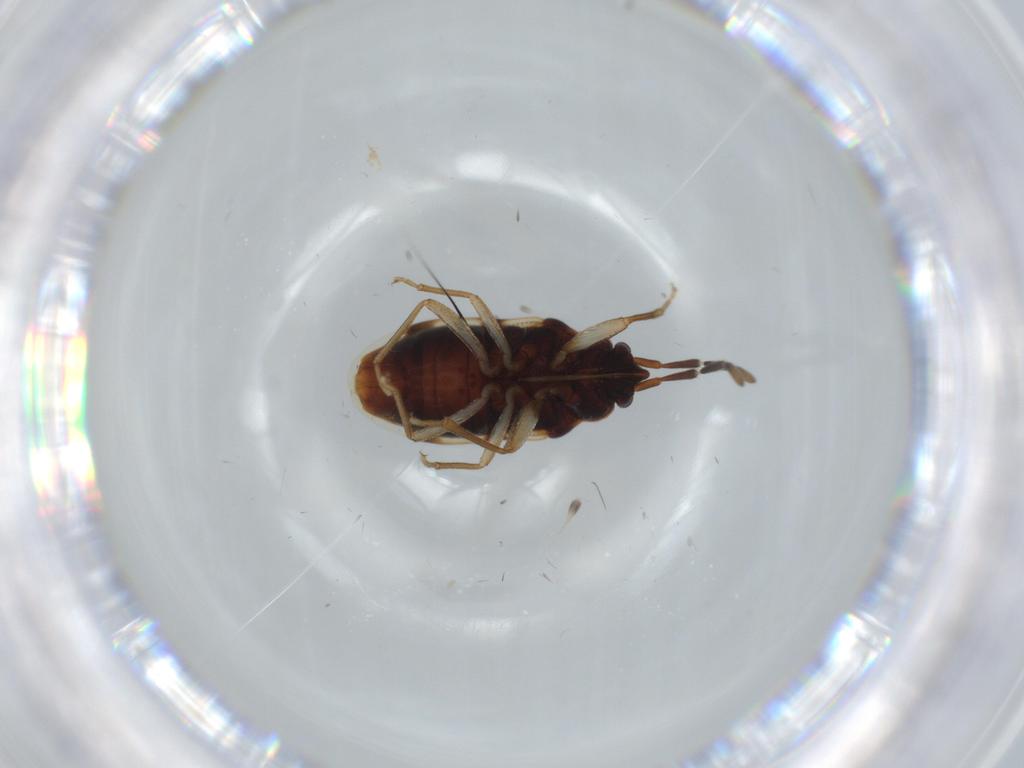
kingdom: Animalia
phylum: Arthropoda
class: Insecta
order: Hemiptera
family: Rhyparochromidae
